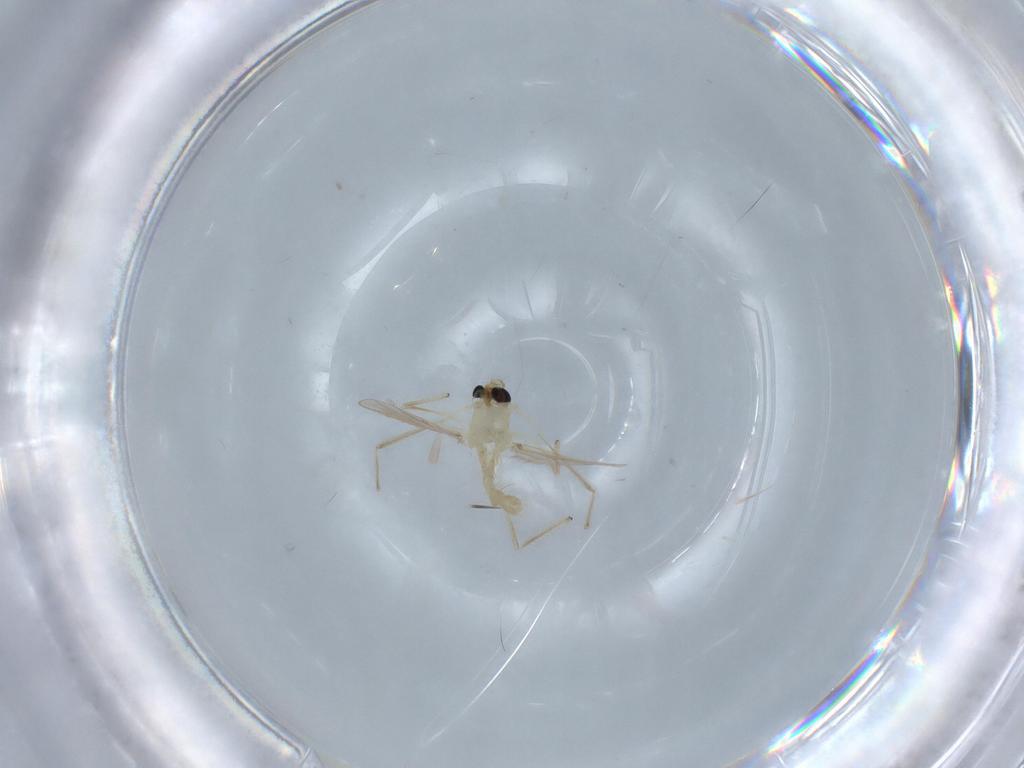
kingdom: Animalia
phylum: Arthropoda
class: Insecta
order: Diptera
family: Chironomidae
